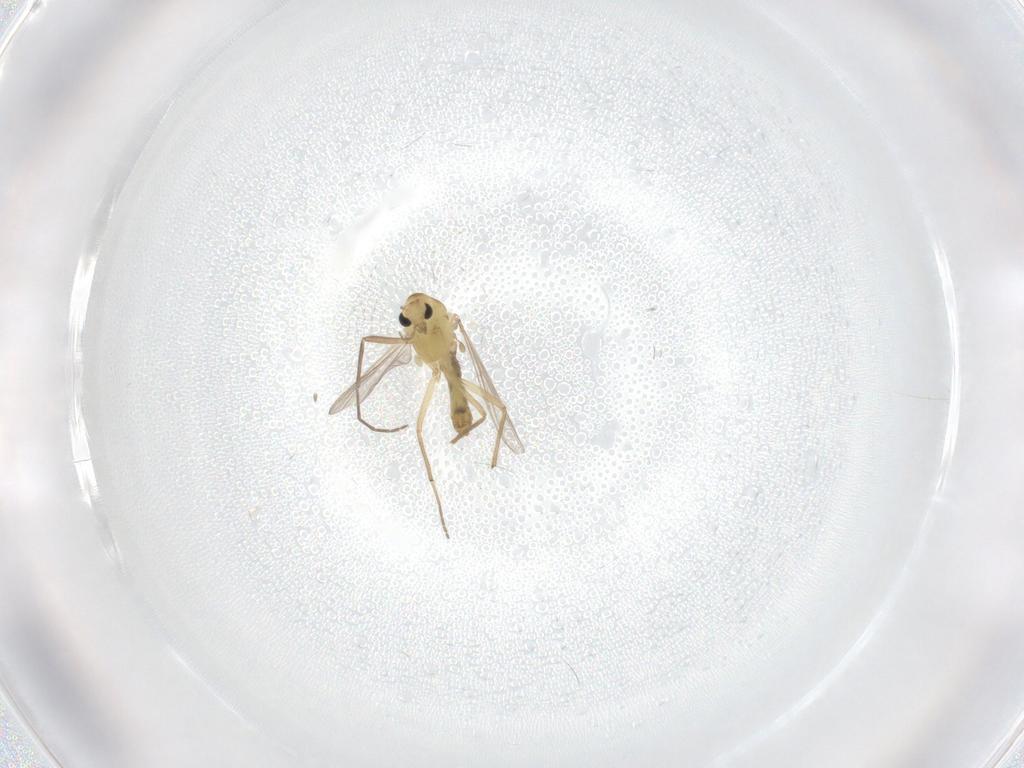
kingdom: Animalia
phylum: Arthropoda
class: Insecta
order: Diptera
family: Chironomidae
